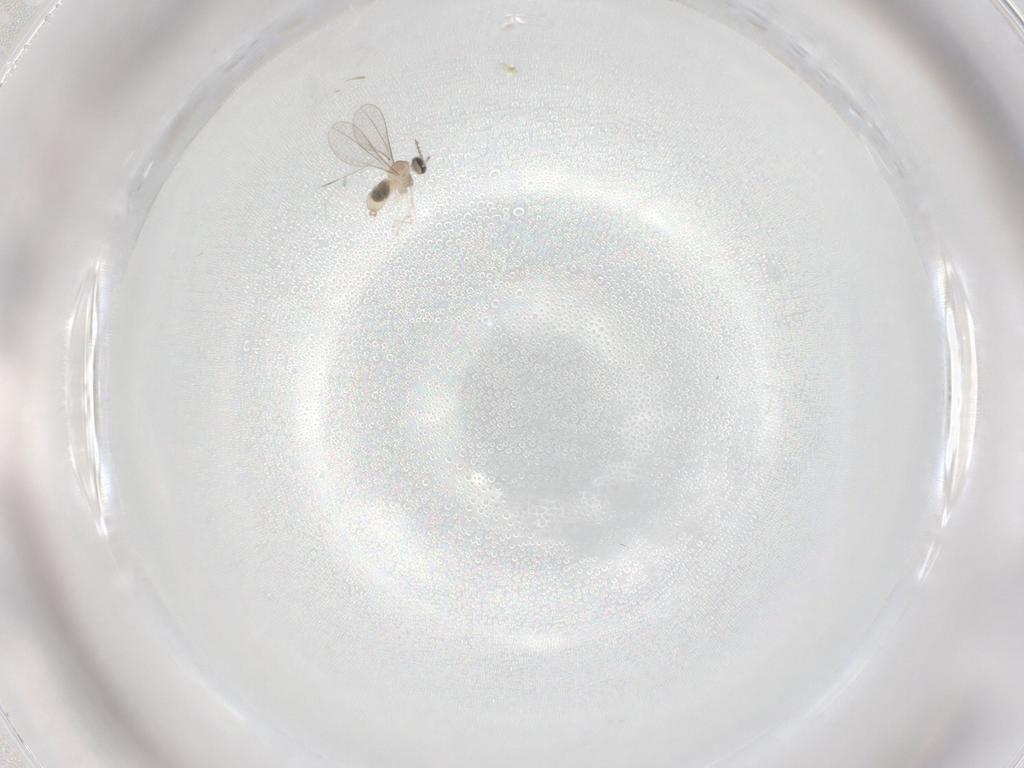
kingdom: Animalia
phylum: Arthropoda
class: Insecta
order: Diptera
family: Cecidomyiidae
